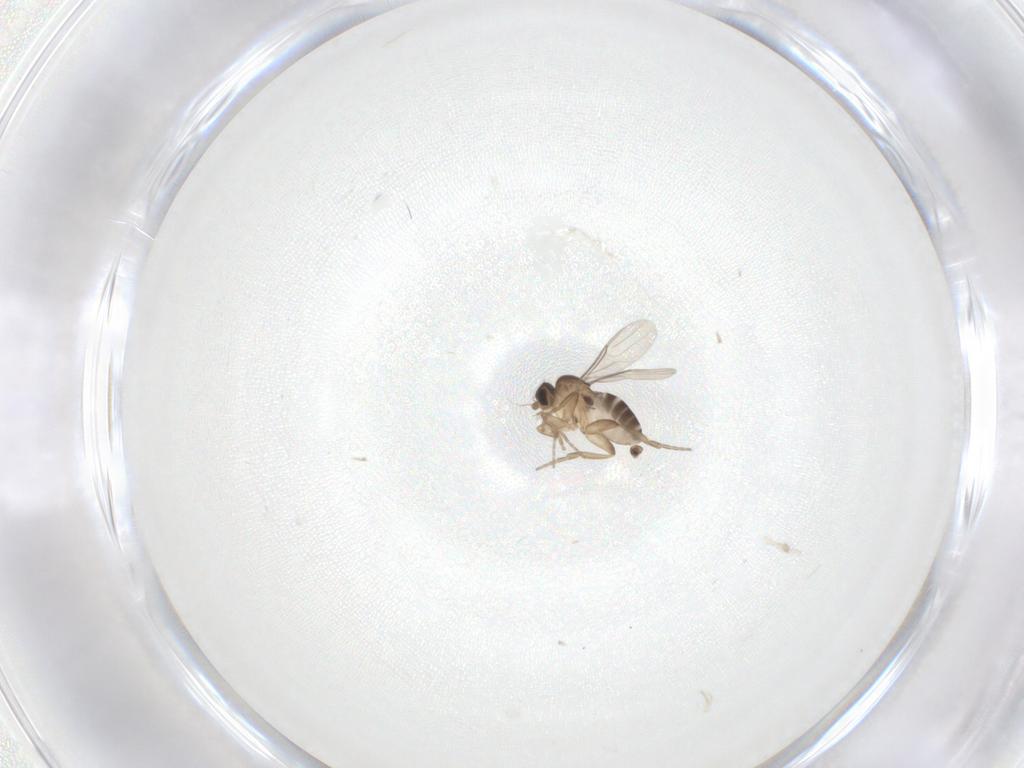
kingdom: Animalia
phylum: Arthropoda
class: Insecta
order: Diptera
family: Phoridae
